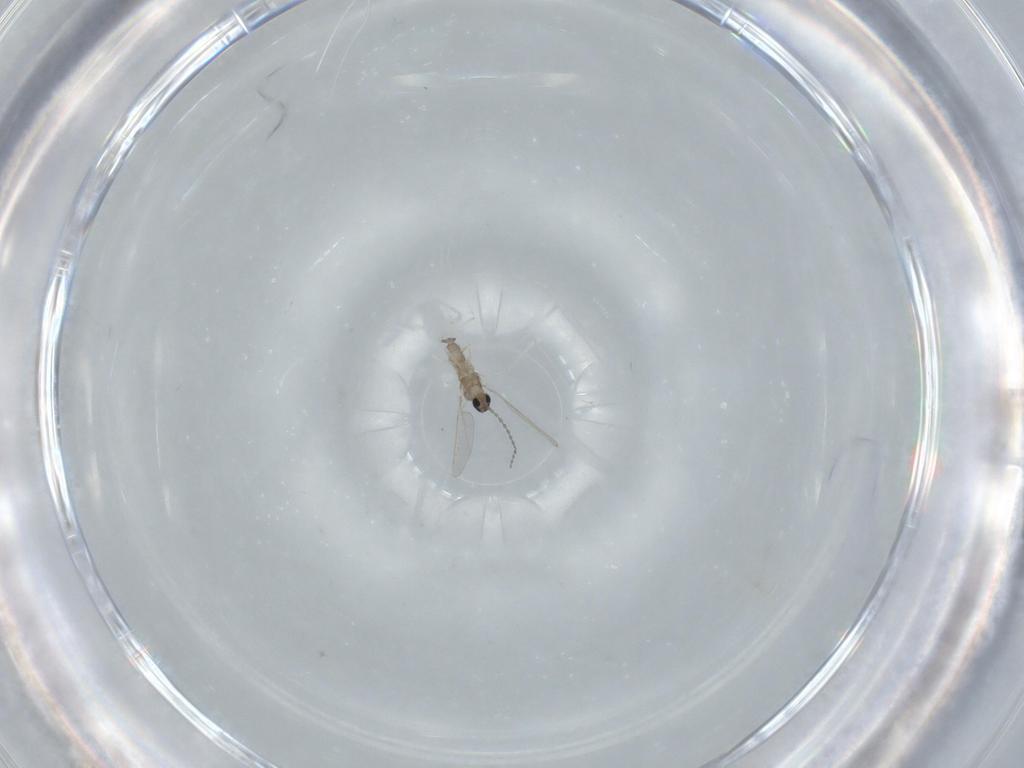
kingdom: Animalia
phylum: Arthropoda
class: Insecta
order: Diptera
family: Cecidomyiidae
